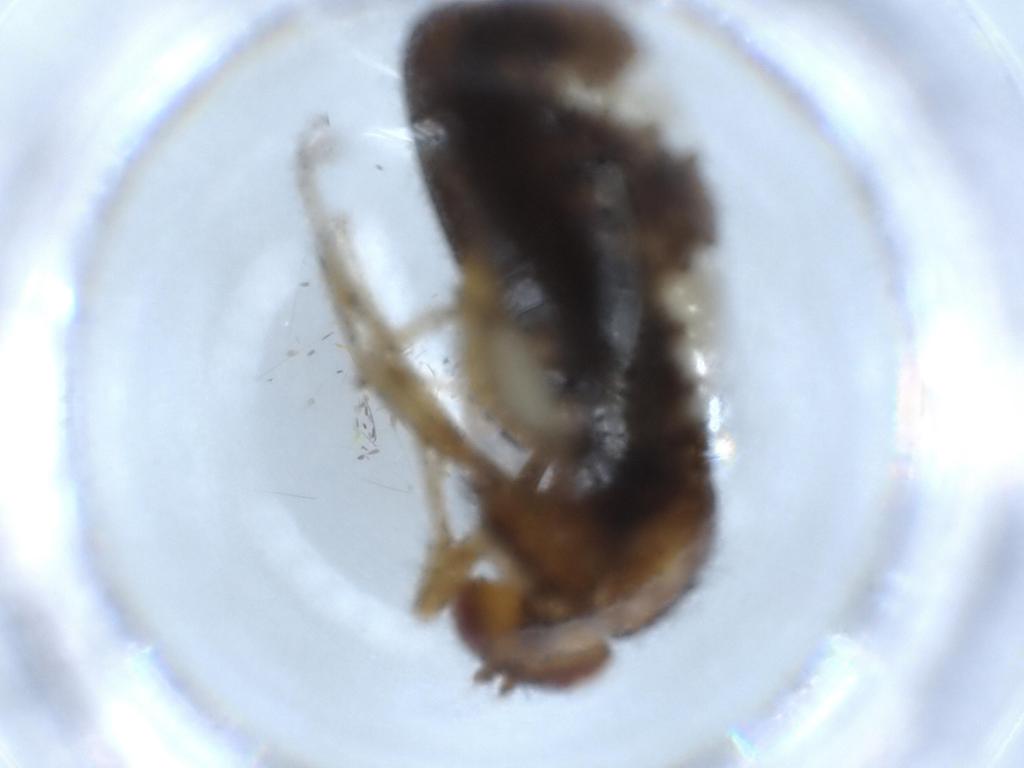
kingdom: Animalia
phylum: Arthropoda
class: Insecta
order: Diptera
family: Lauxaniidae
